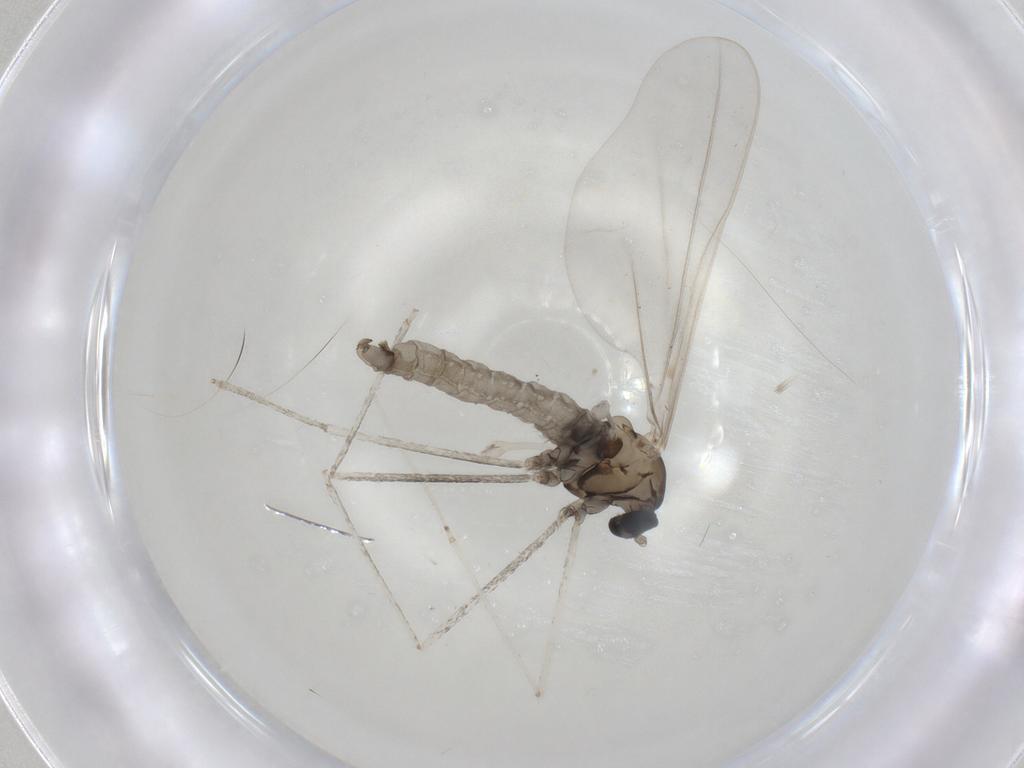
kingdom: Animalia
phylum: Arthropoda
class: Insecta
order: Diptera
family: Cecidomyiidae
